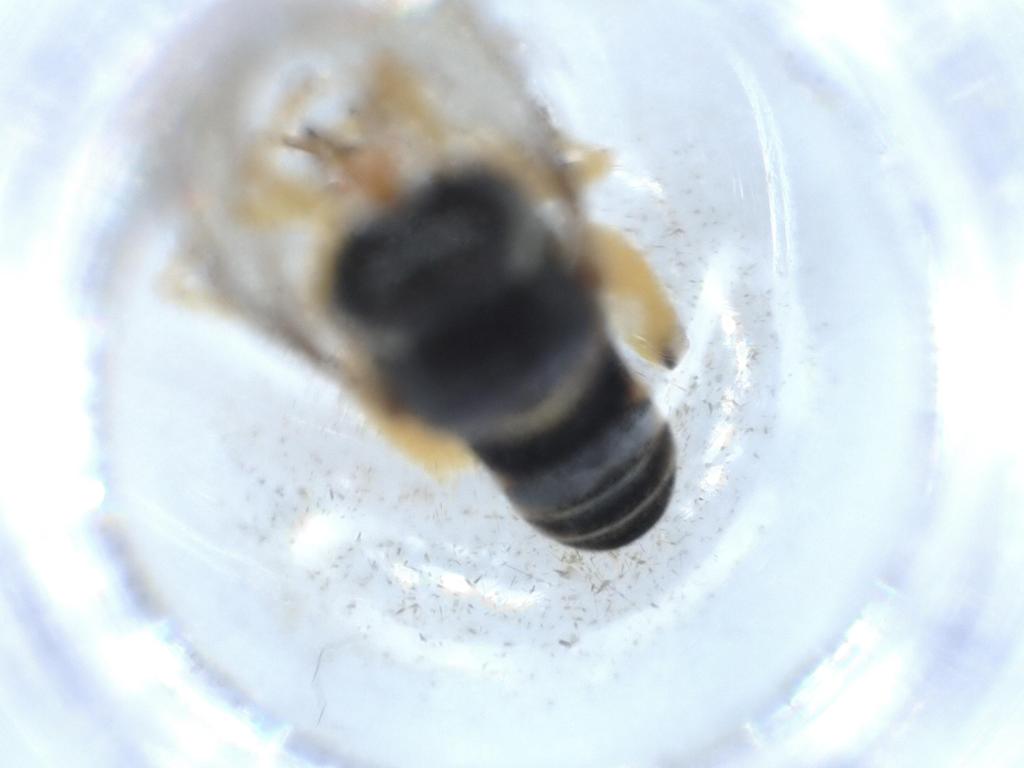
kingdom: Animalia
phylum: Arthropoda
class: Insecta
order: Diptera
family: Xylomyidae
